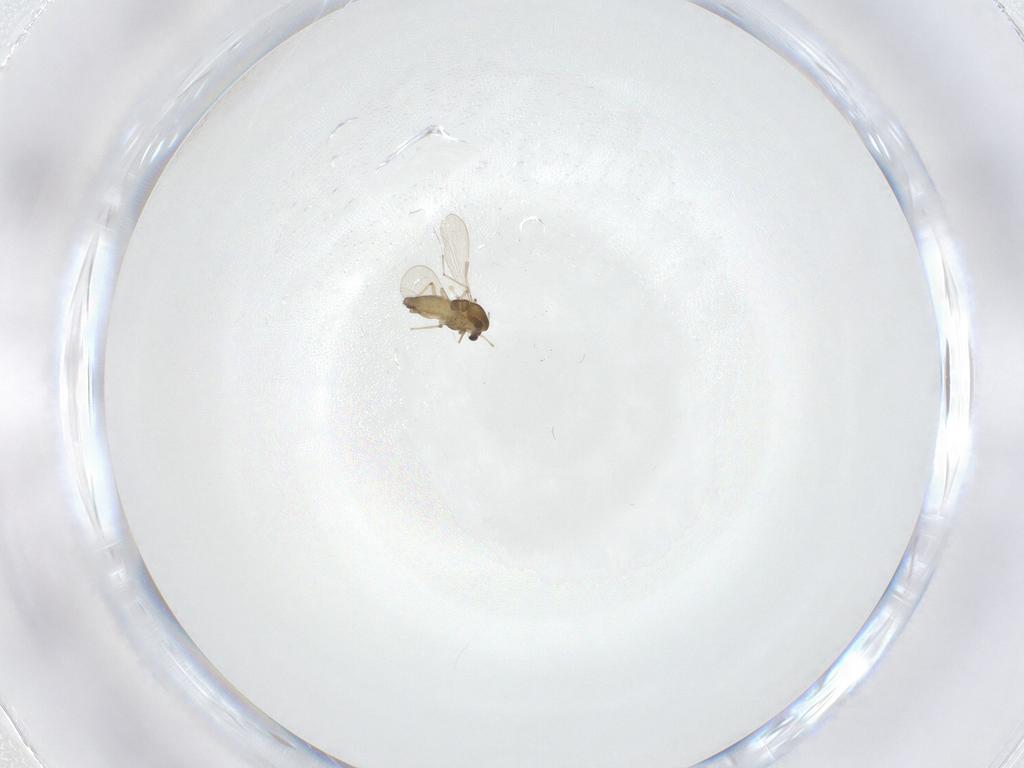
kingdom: Animalia
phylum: Arthropoda
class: Insecta
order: Diptera
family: Chironomidae
